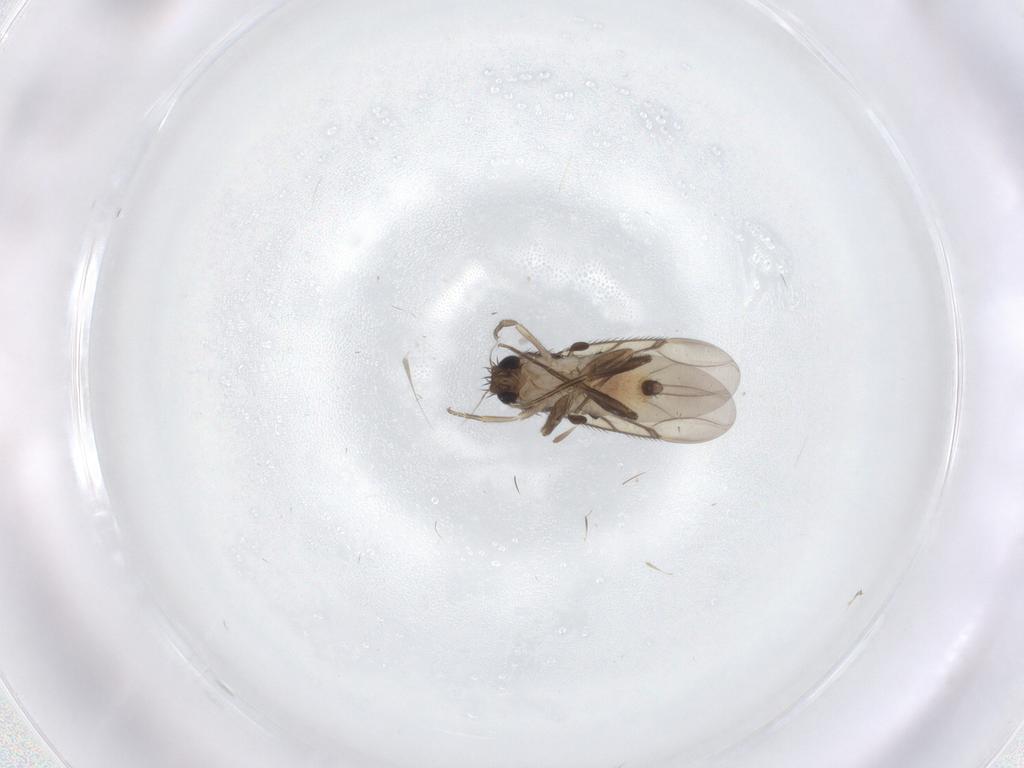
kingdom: Animalia
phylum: Arthropoda
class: Insecta
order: Diptera
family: Phoridae
